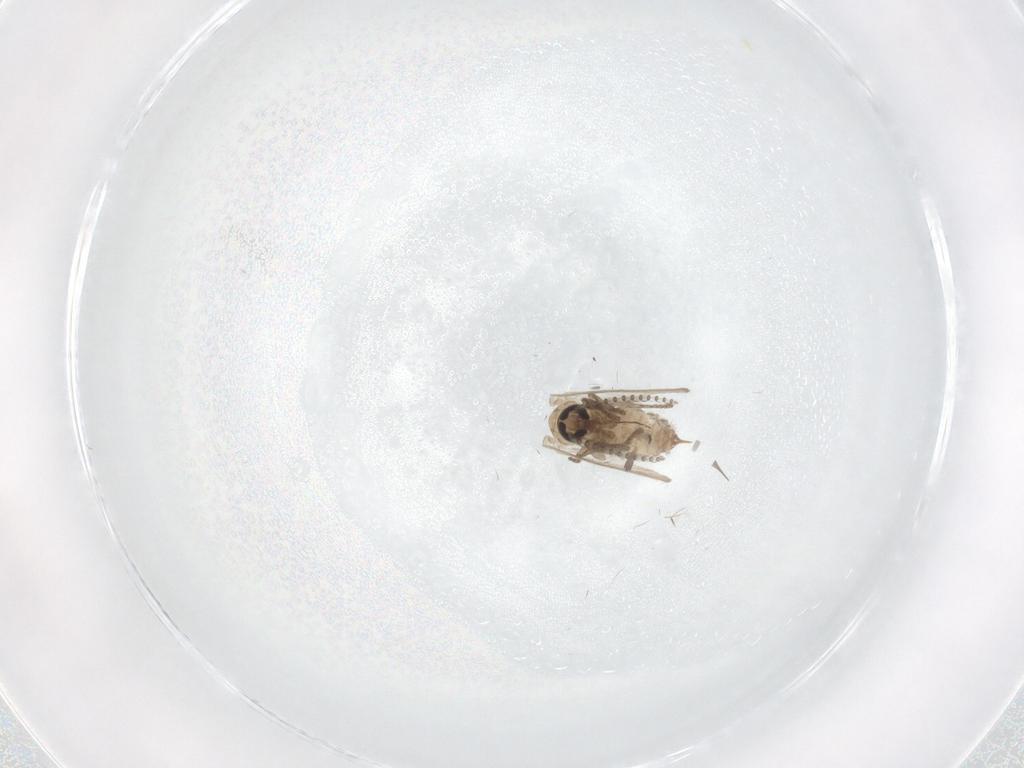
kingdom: Animalia
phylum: Arthropoda
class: Insecta
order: Diptera
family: Psychodidae
